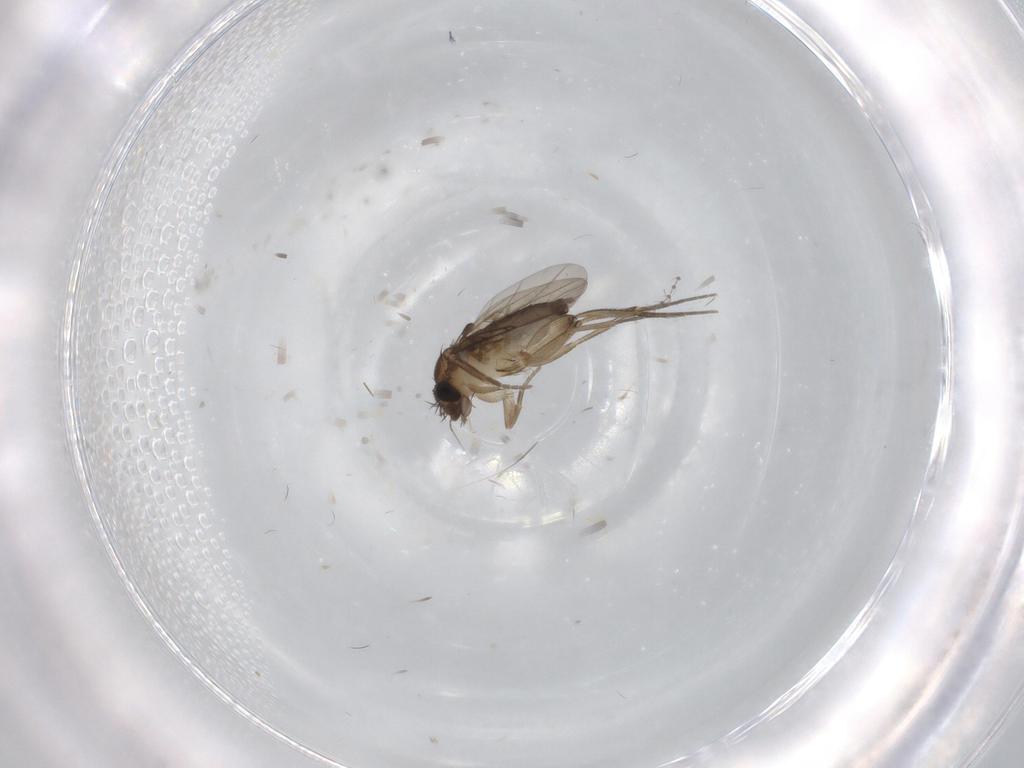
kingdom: Animalia
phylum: Arthropoda
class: Insecta
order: Diptera
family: Phoridae
